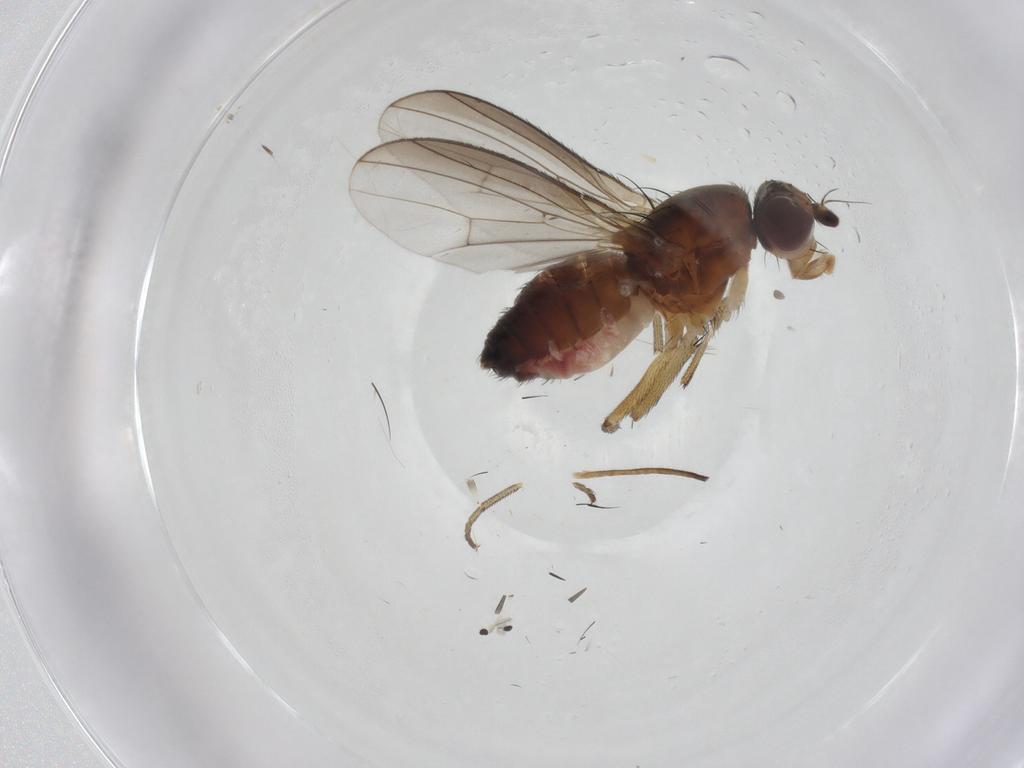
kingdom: Animalia
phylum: Arthropoda
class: Insecta
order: Diptera
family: Heleomyzidae
